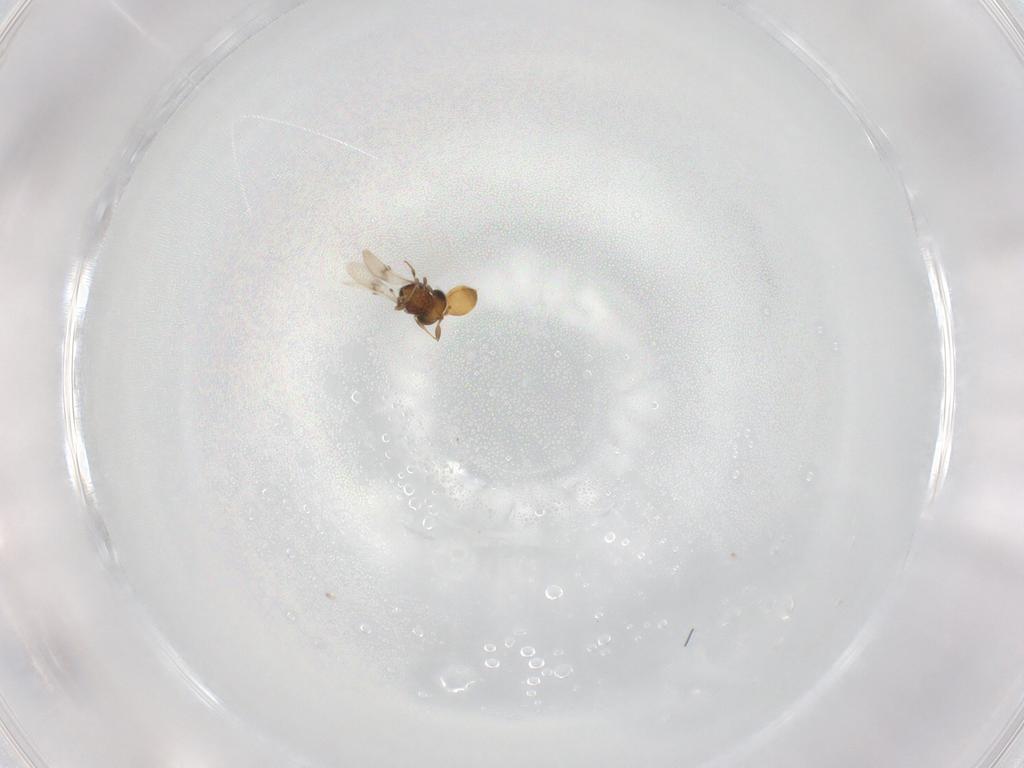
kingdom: Animalia
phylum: Arthropoda
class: Insecta
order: Hymenoptera
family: Scelionidae
